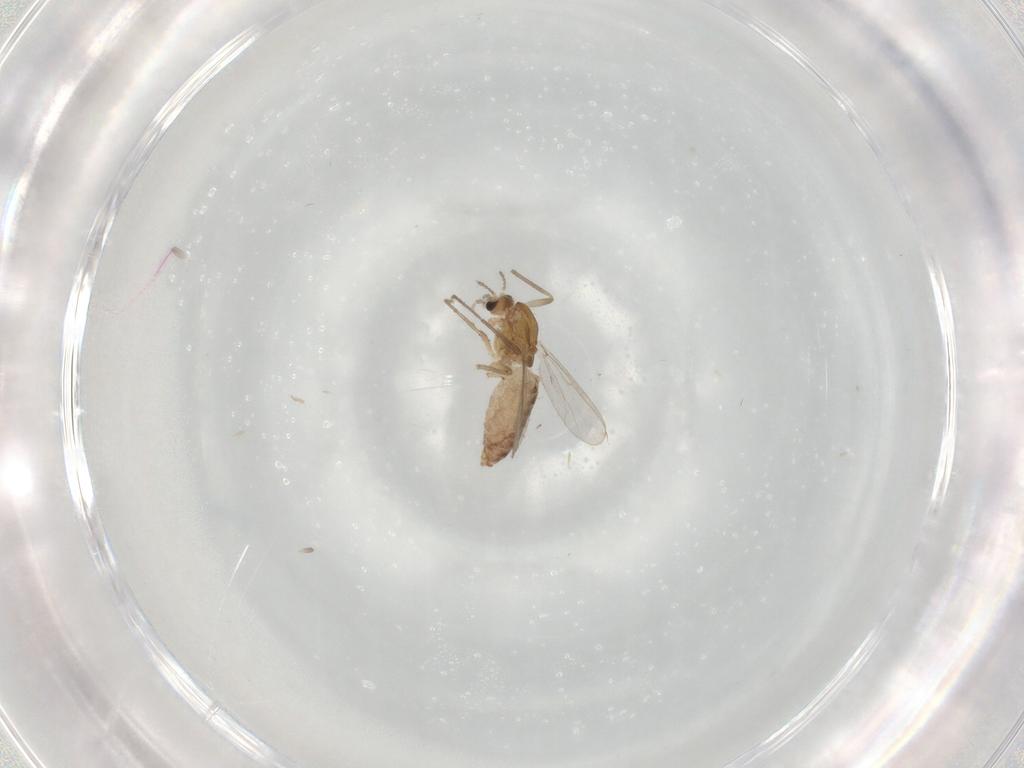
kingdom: Animalia
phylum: Arthropoda
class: Insecta
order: Diptera
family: Chironomidae
